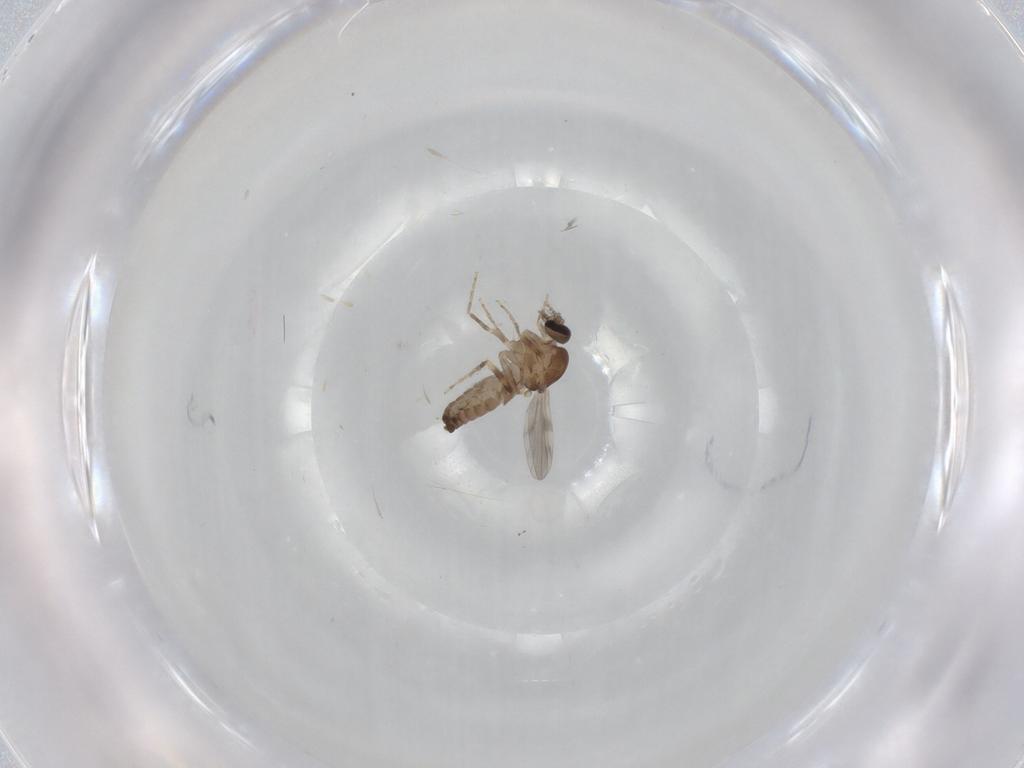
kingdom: Animalia
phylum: Arthropoda
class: Insecta
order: Diptera
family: Ceratopogonidae
